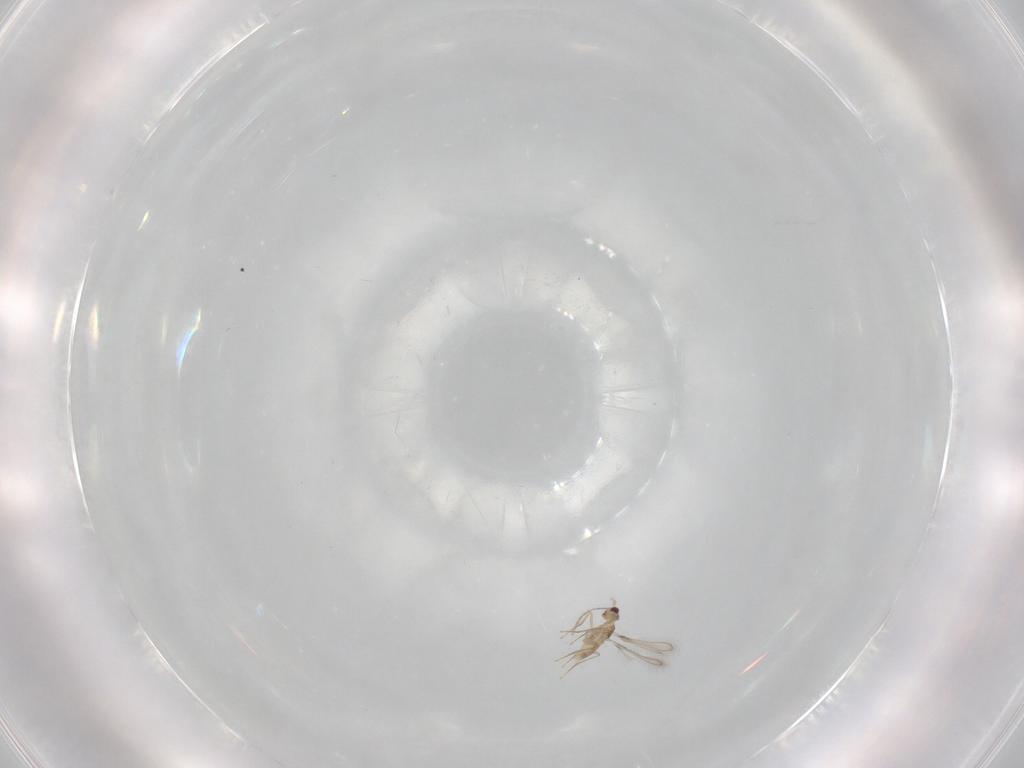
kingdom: Animalia
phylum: Arthropoda
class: Insecta
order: Hymenoptera
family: Mymaridae
